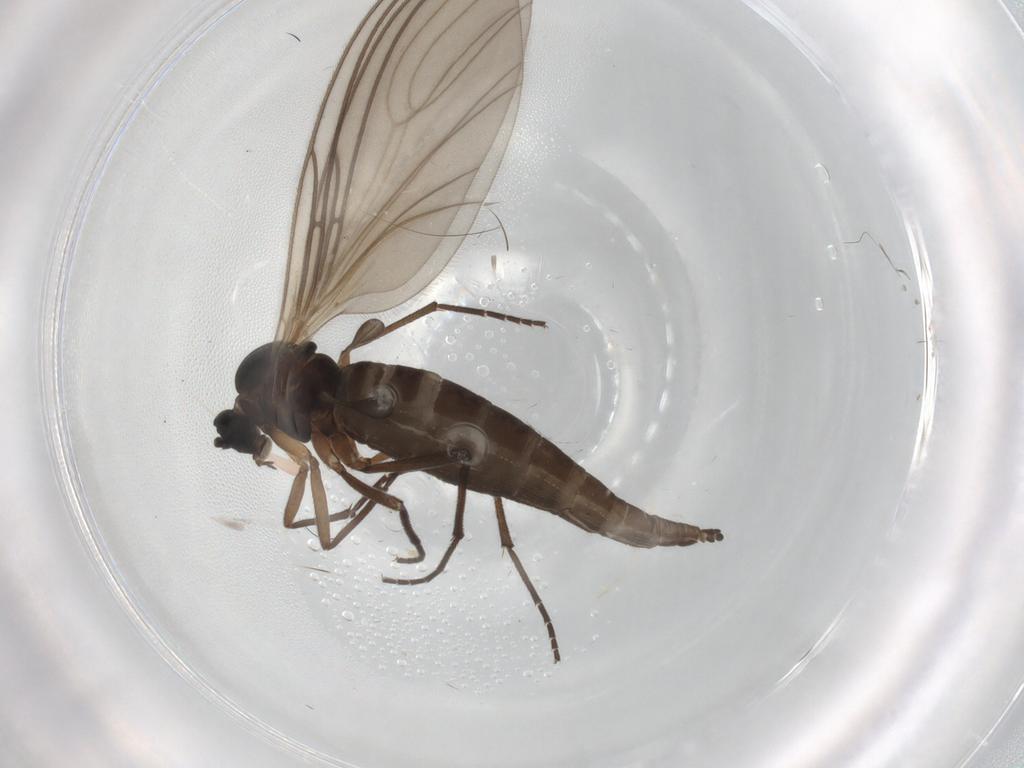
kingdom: Animalia
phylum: Arthropoda
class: Insecta
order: Diptera
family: Sciaridae
